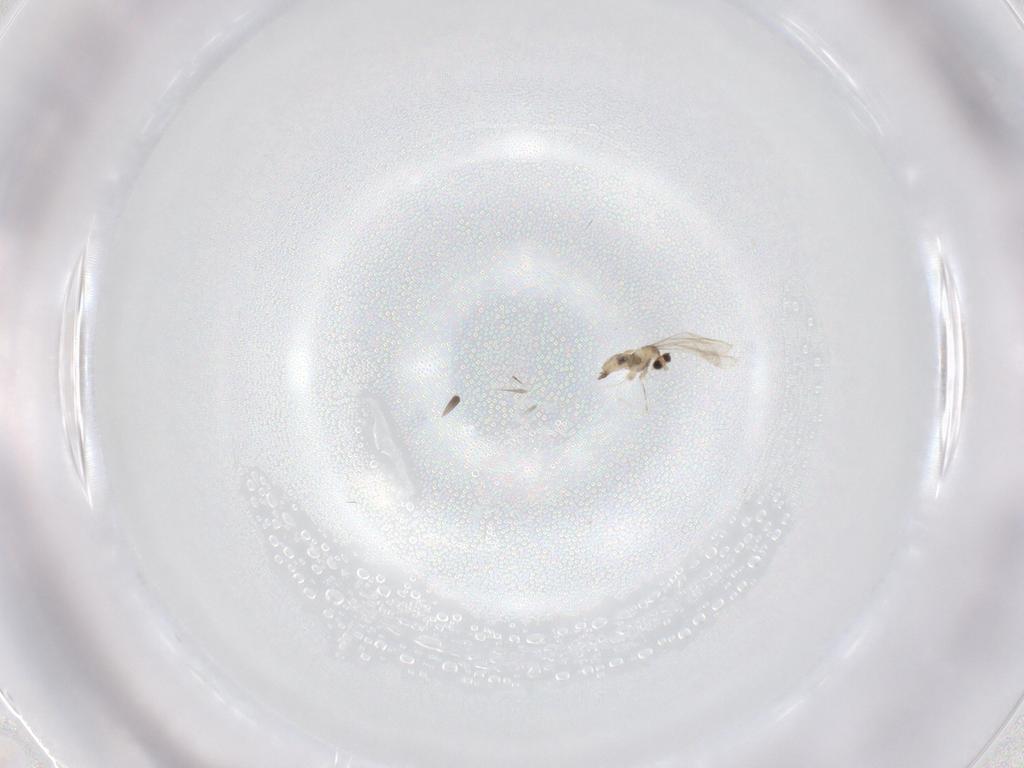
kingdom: Animalia
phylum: Arthropoda
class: Insecta
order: Diptera
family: Cecidomyiidae
